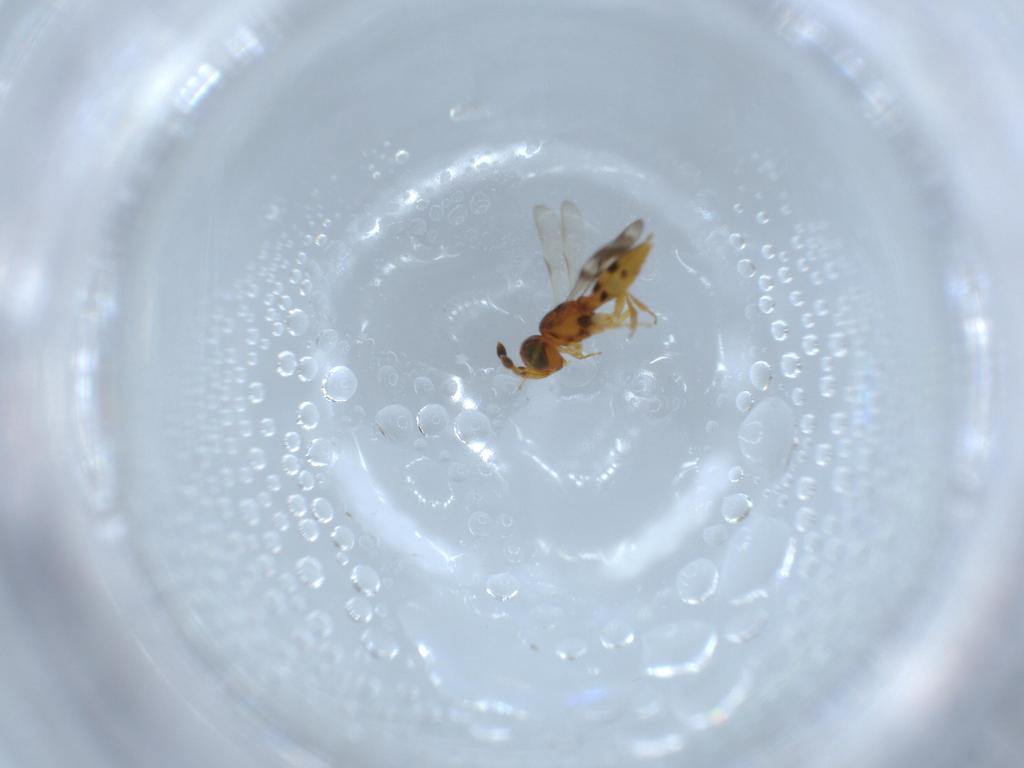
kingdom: Animalia
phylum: Arthropoda
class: Insecta
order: Hymenoptera
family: Scelionidae
